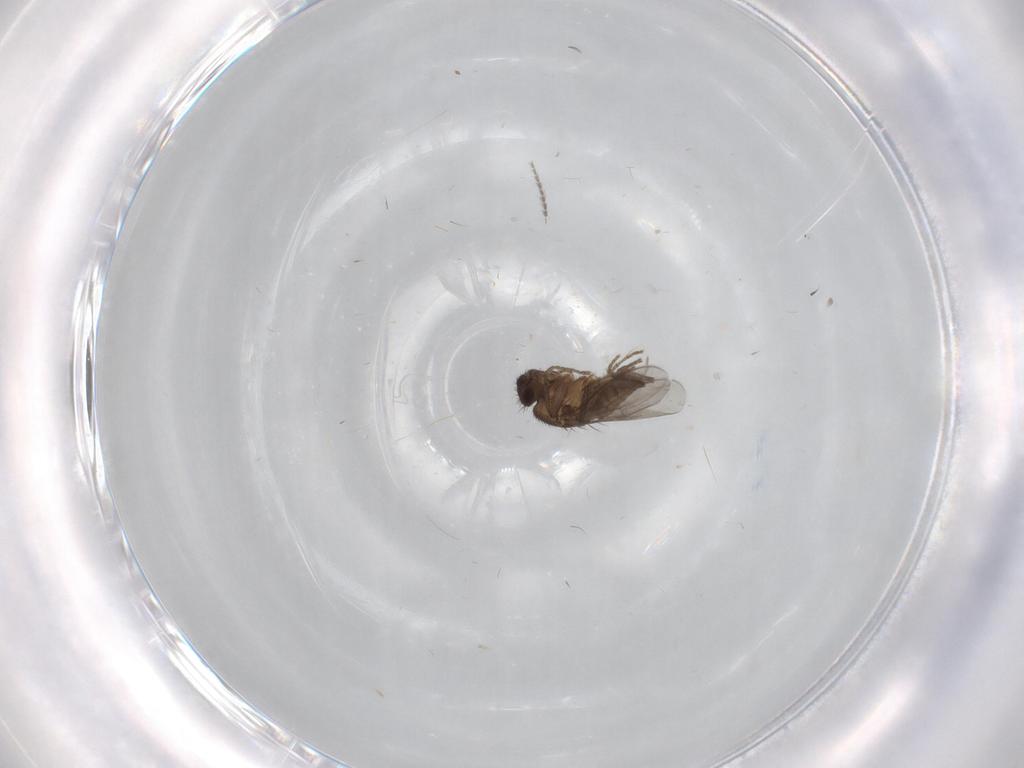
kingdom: Animalia
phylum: Arthropoda
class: Insecta
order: Diptera
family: Chironomidae
